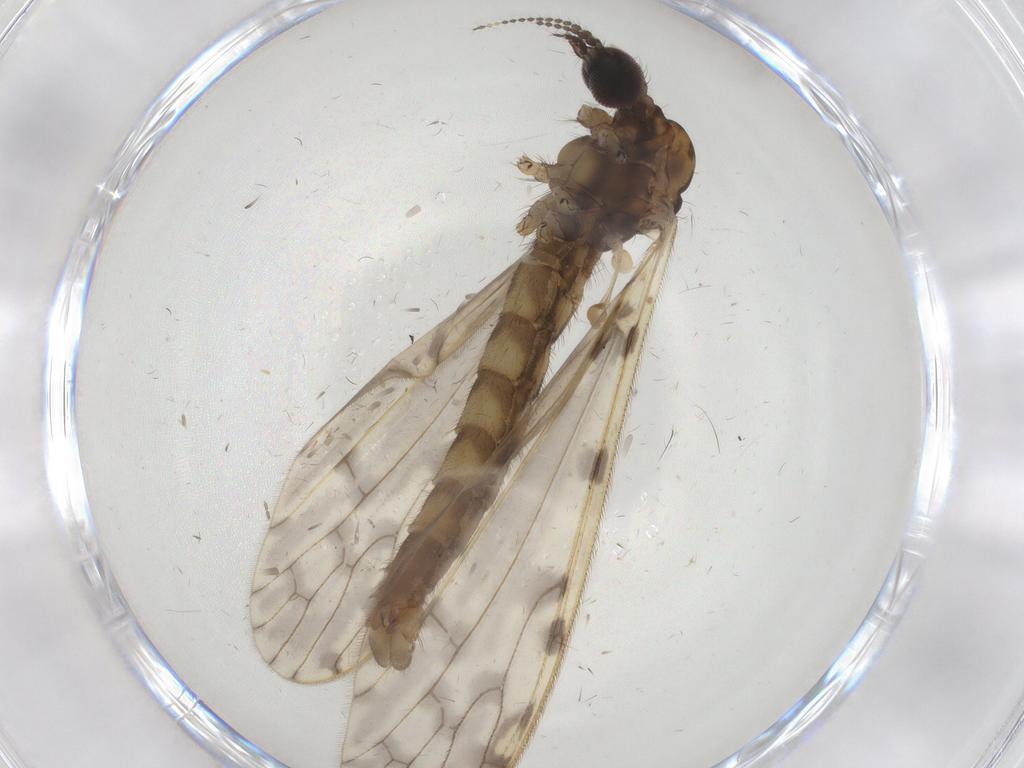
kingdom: Animalia
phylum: Arthropoda
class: Insecta
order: Diptera
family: Ceratopogonidae
